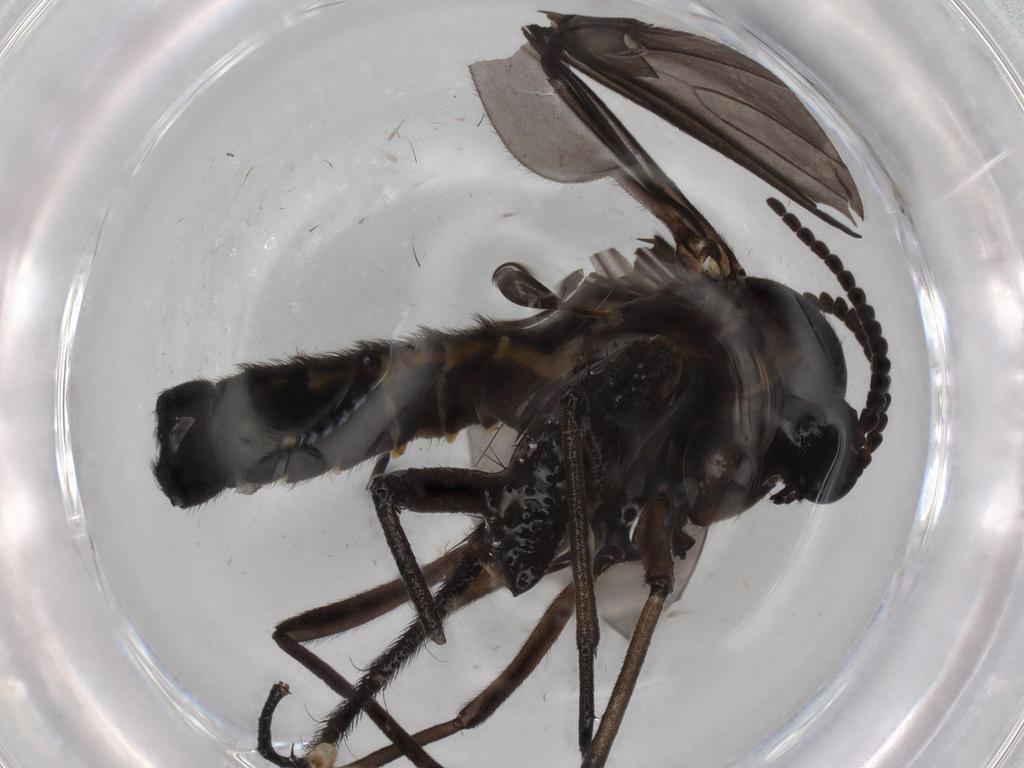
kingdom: Animalia
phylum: Arthropoda
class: Insecta
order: Diptera
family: Sciaridae
